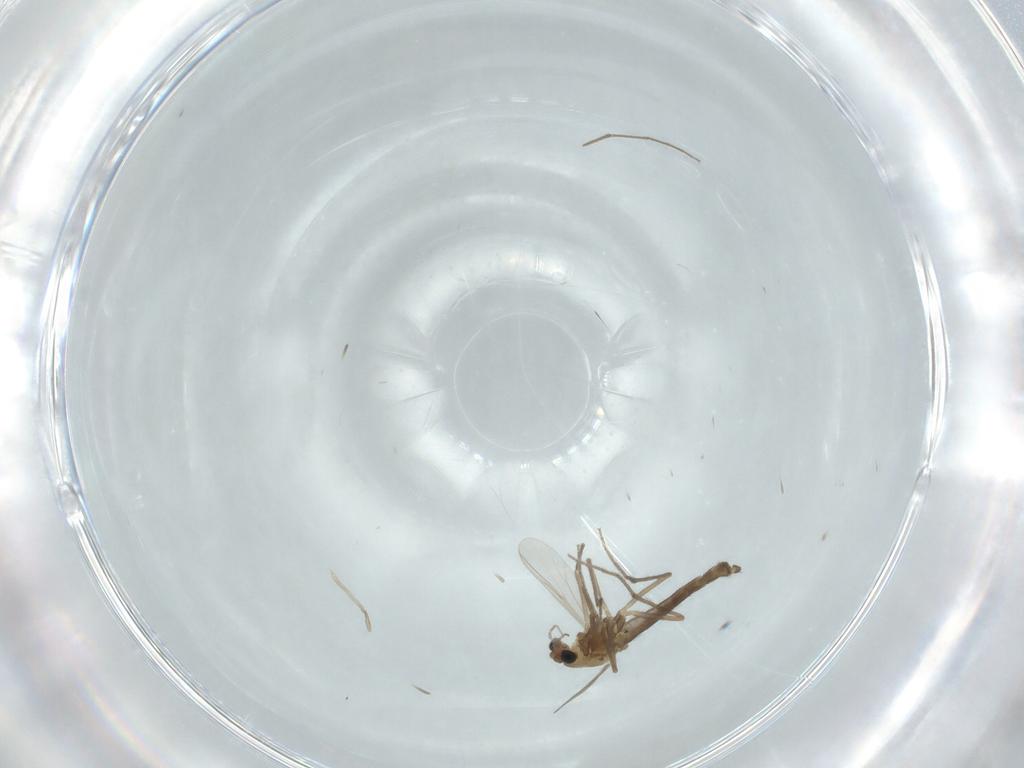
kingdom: Animalia
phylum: Arthropoda
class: Insecta
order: Diptera
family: Chironomidae
